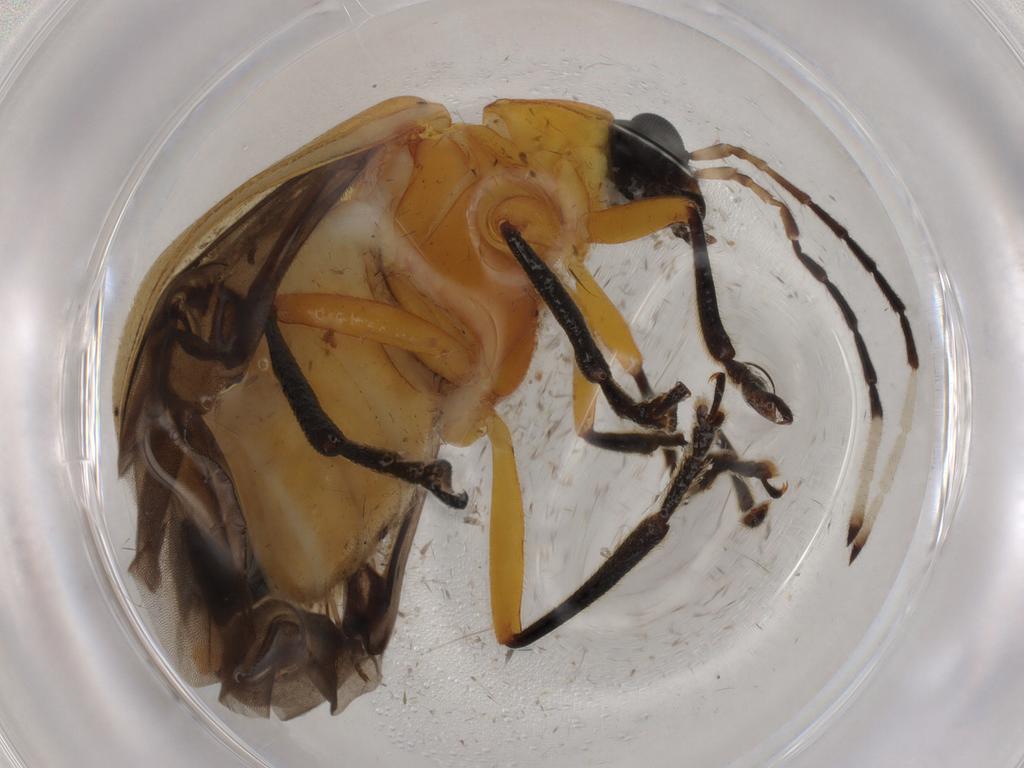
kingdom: Animalia
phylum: Arthropoda
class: Insecta
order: Coleoptera
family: Chrysomelidae
